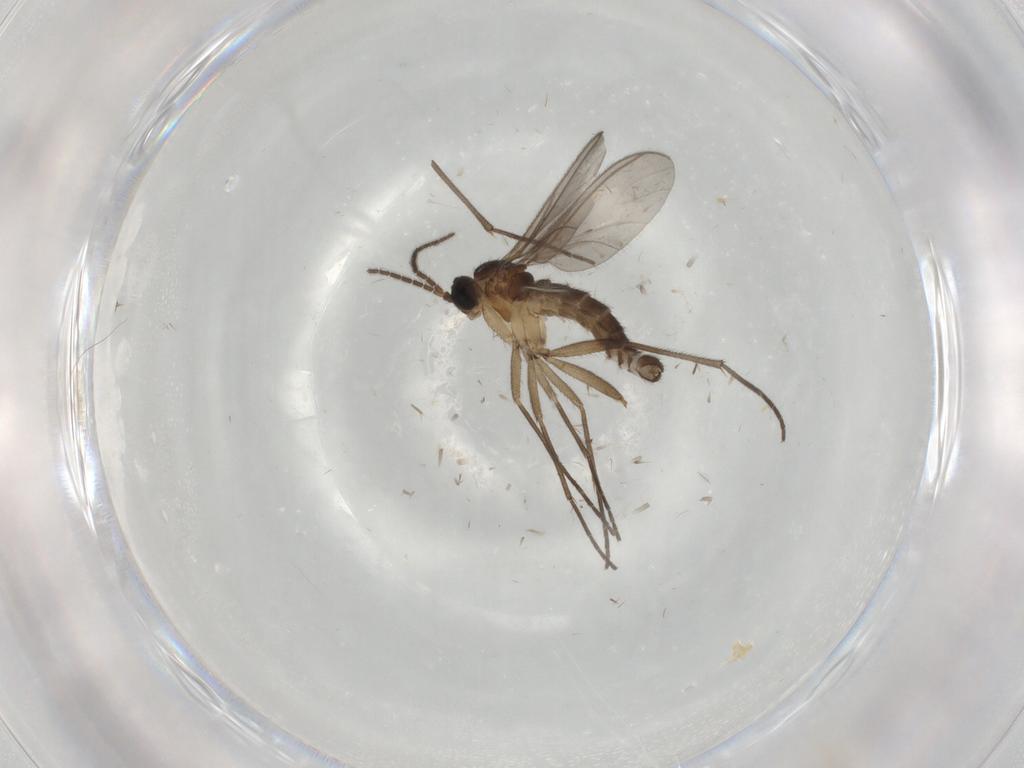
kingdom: Animalia
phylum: Arthropoda
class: Insecta
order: Diptera
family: Sciaridae
